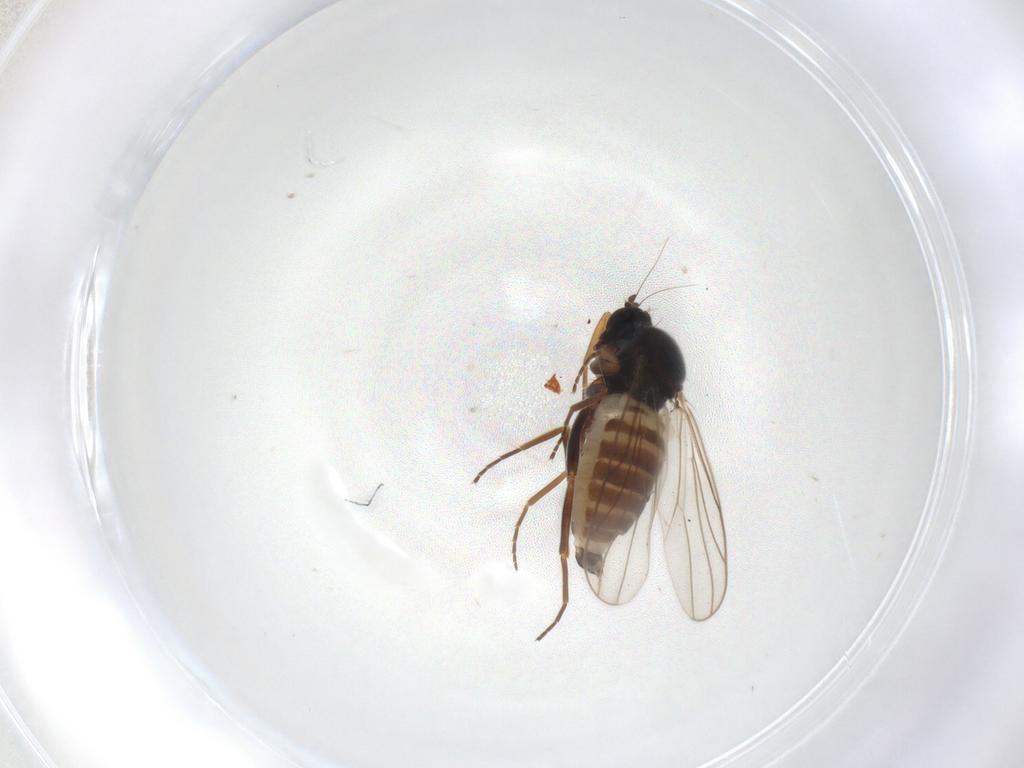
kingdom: Animalia
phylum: Arthropoda
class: Insecta
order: Diptera
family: Hybotidae
